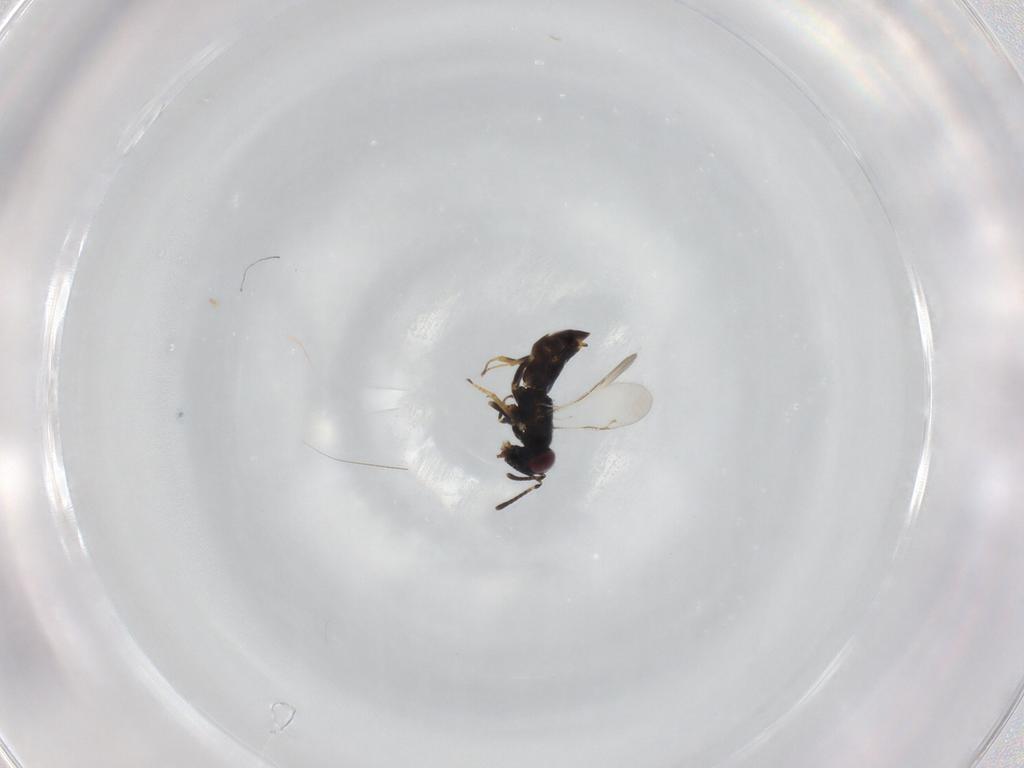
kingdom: Animalia
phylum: Arthropoda
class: Insecta
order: Hymenoptera
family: Encyrtidae
